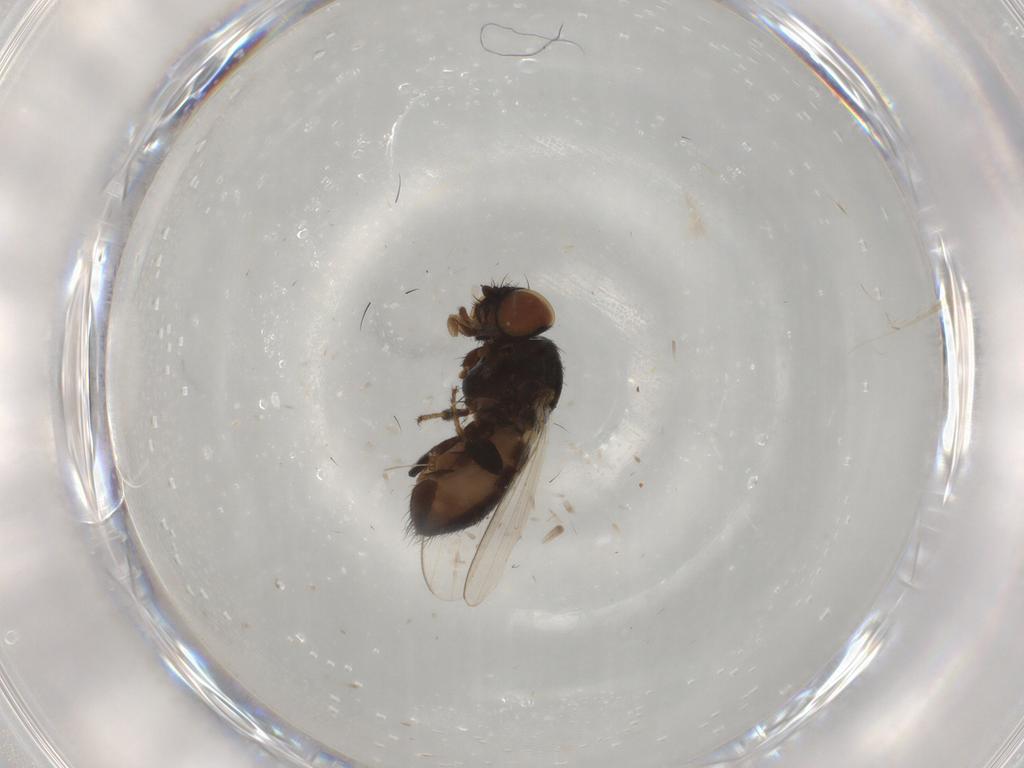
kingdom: Animalia
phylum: Arthropoda
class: Insecta
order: Diptera
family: Milichiidae
